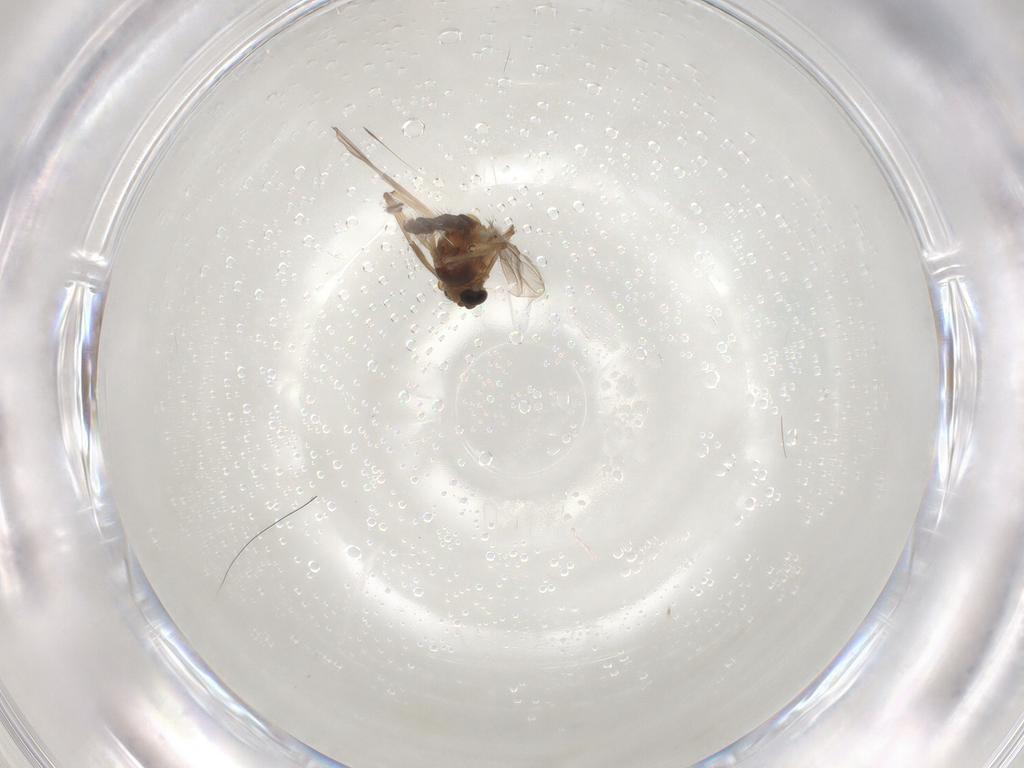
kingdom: Animalia
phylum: Arthropoda
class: Insecta
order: Diptera
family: Chironomidae
